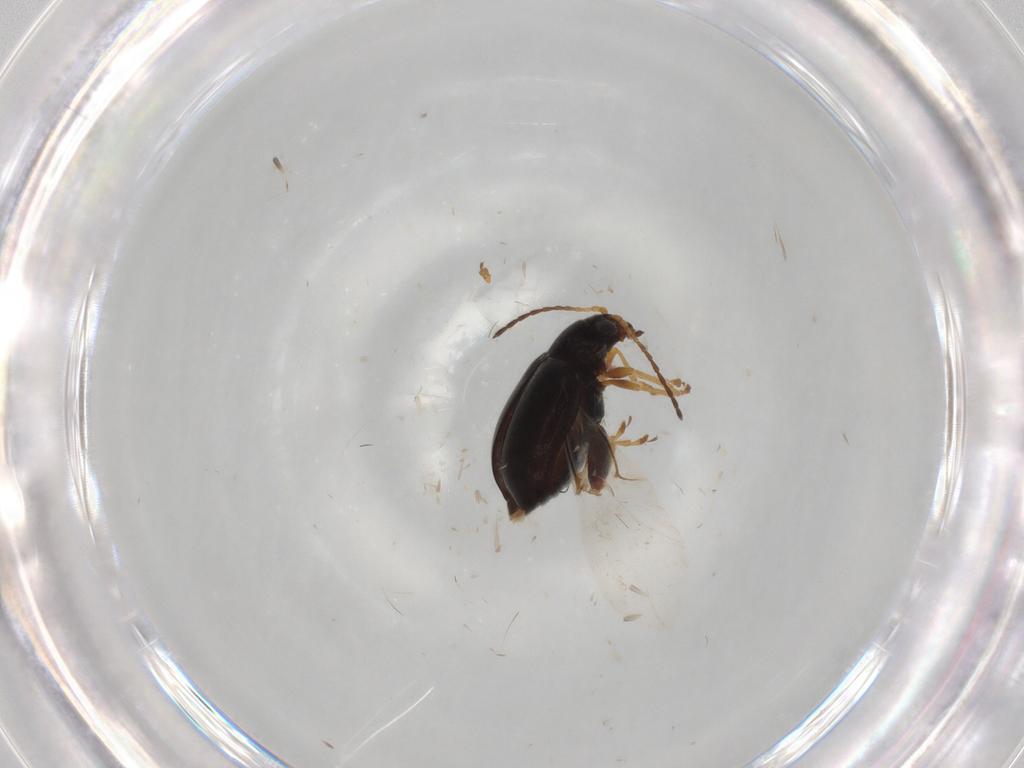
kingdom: Animalia
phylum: Arthropoda
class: Insecta
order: Coleoptera
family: Chrysomelidae
